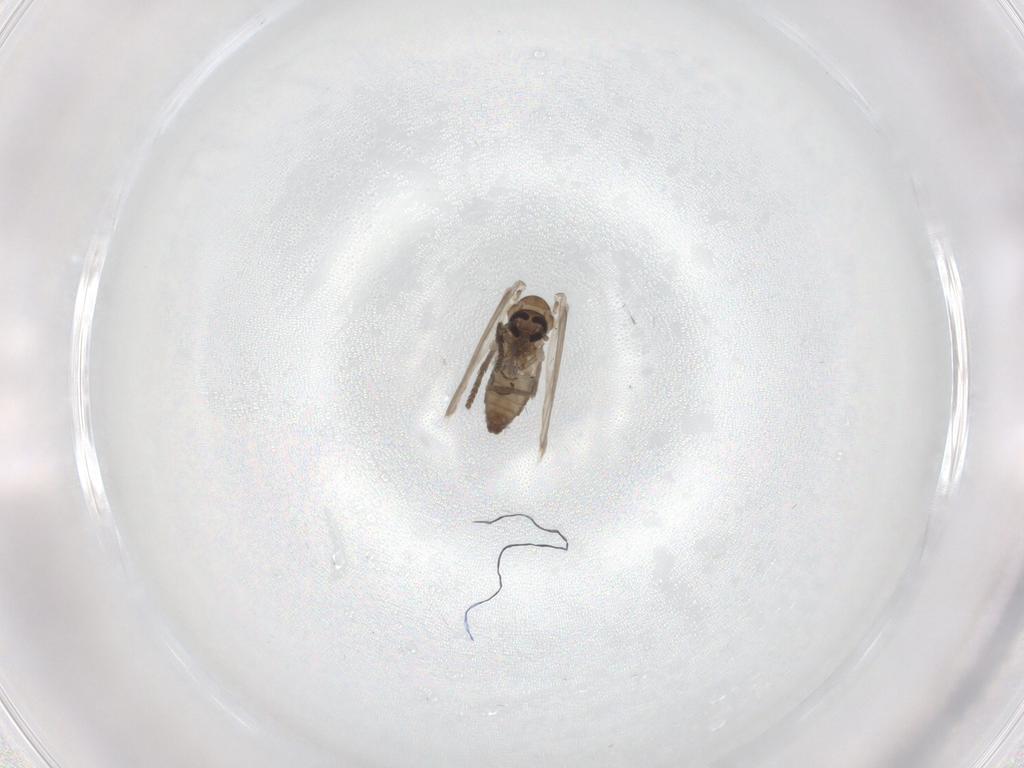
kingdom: Animalia
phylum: Arthropoda
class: Insecta
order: Diptera
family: Psychodidae
